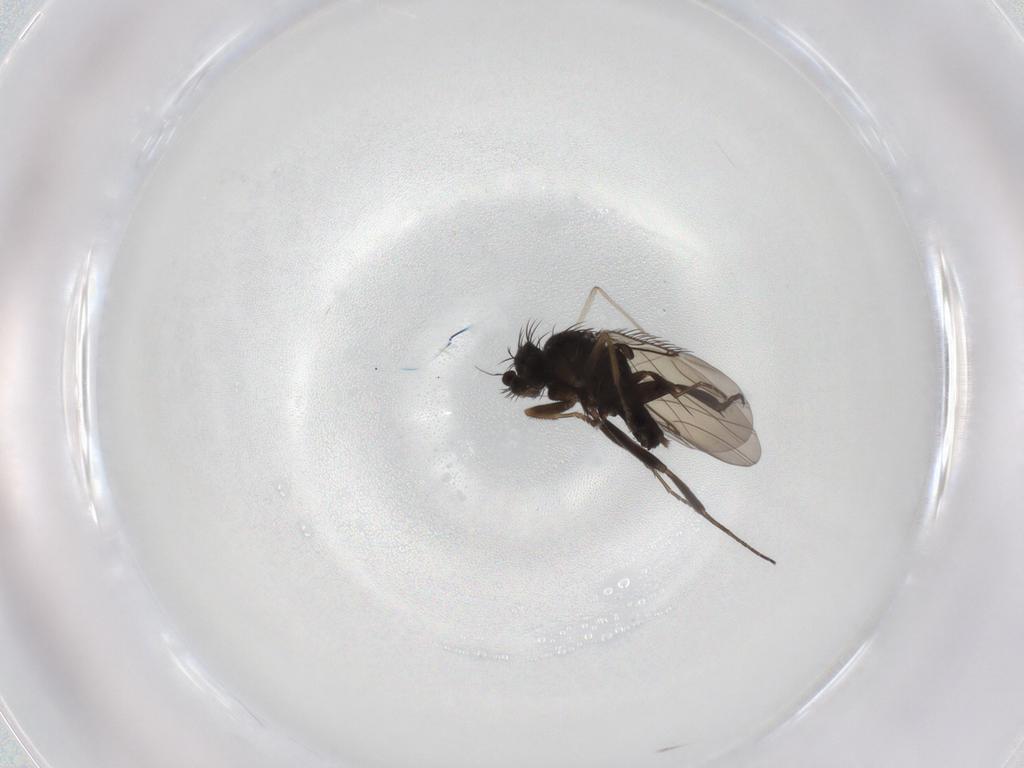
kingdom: Animalia
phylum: Arthropoda
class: Insecta
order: Diptera
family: Phoridae
